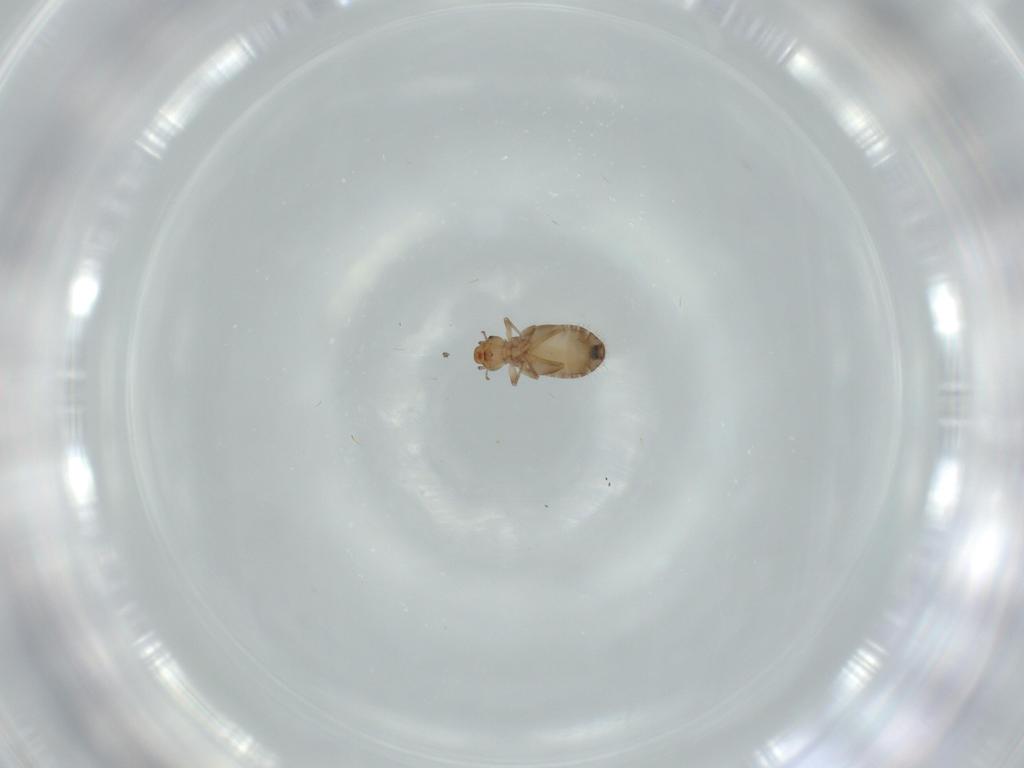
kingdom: Animalia
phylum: Arthropoda
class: Insecta
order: Psocodea
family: Liposcelididae
